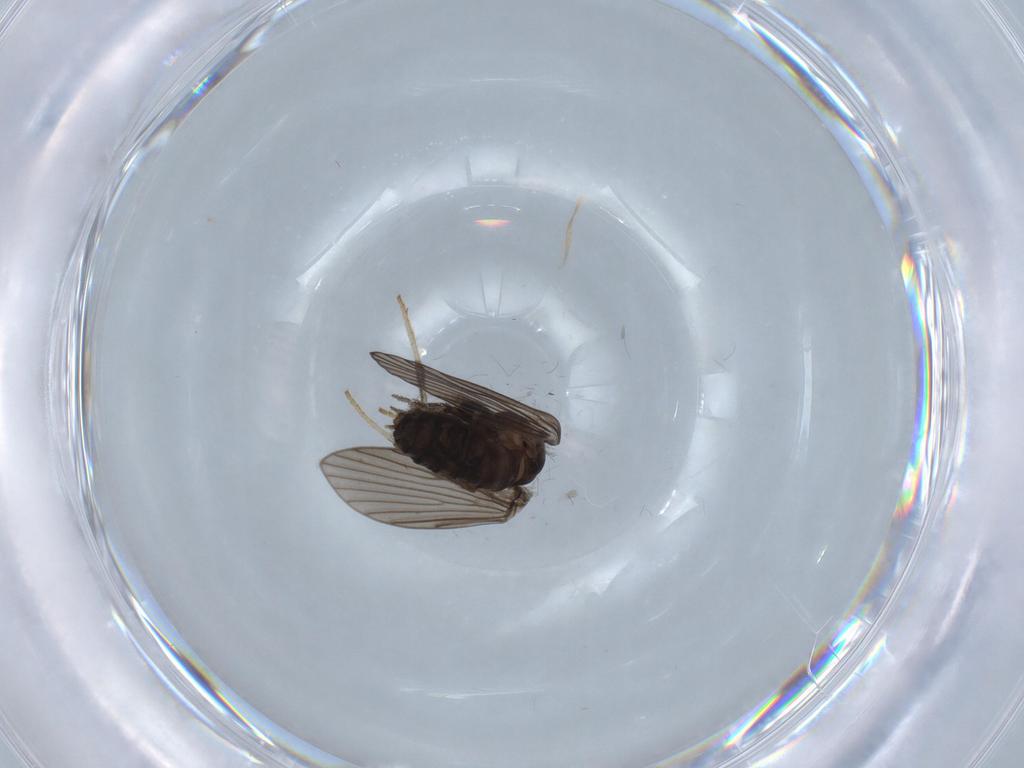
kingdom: Animalia
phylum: Arthropoda
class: Insecta
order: Diptera
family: Psychodidae
